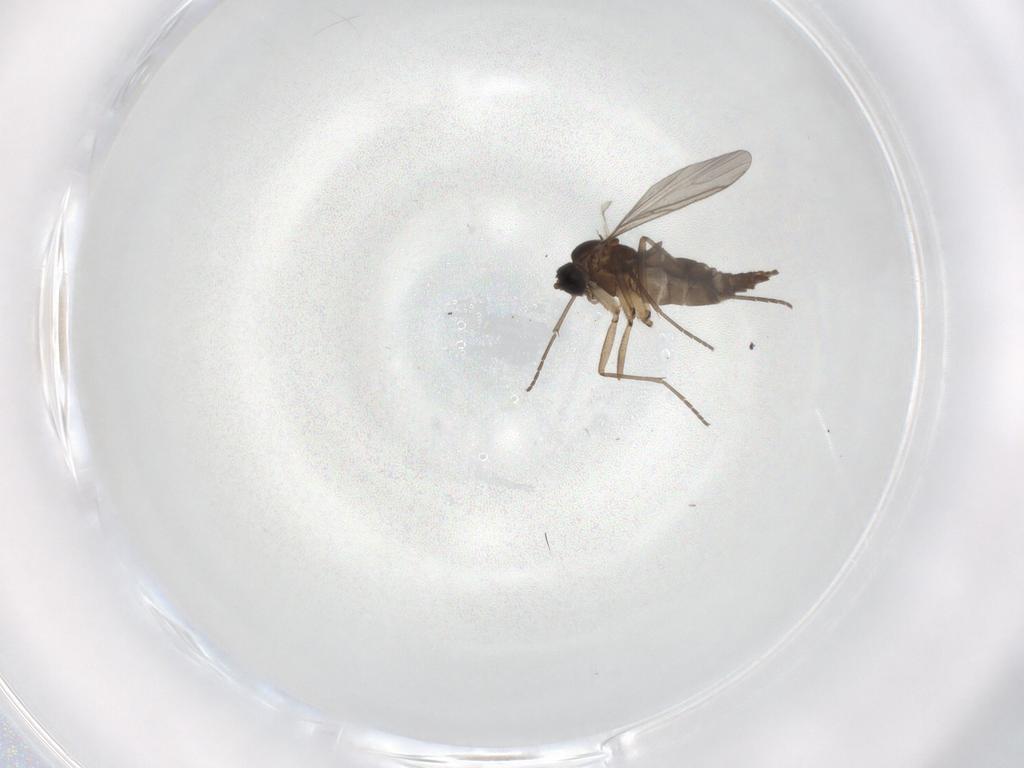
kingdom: Animalia
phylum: Arthropoda
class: Insecta
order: Diptera
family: Sciaridae
